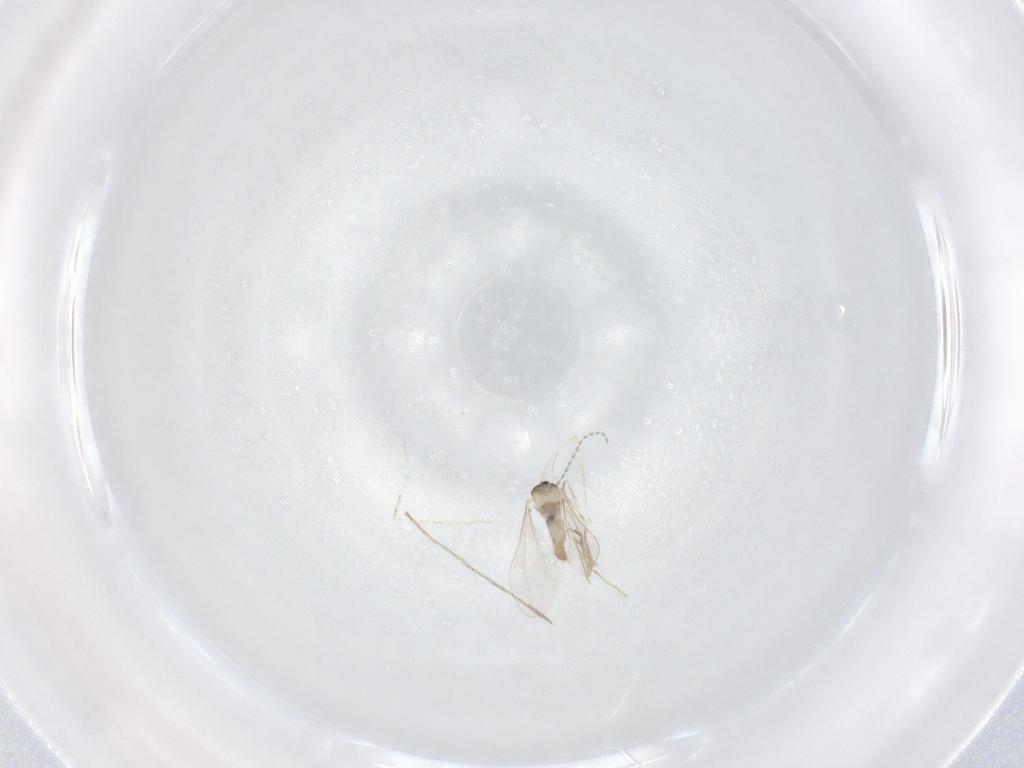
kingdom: Animalia
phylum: Arthropoda
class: Insecta
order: Diptera
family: Cecidomyiidae
